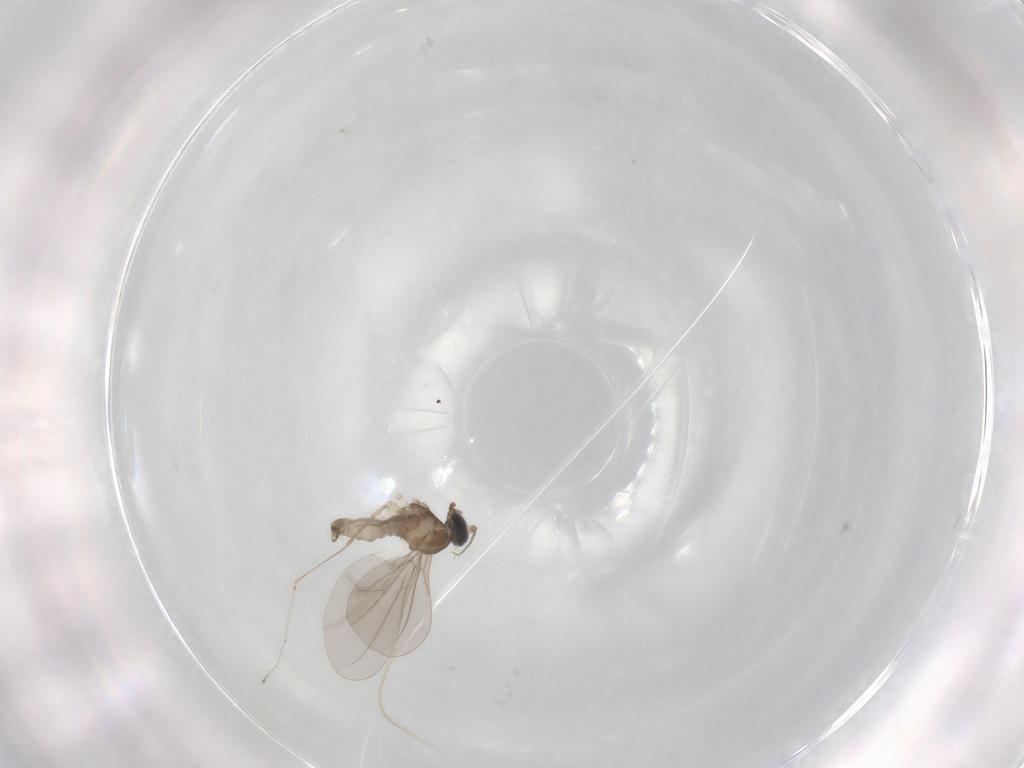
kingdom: Animalia
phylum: Arthropoda
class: Insecta
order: Diptera
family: Cecidomyiidae
